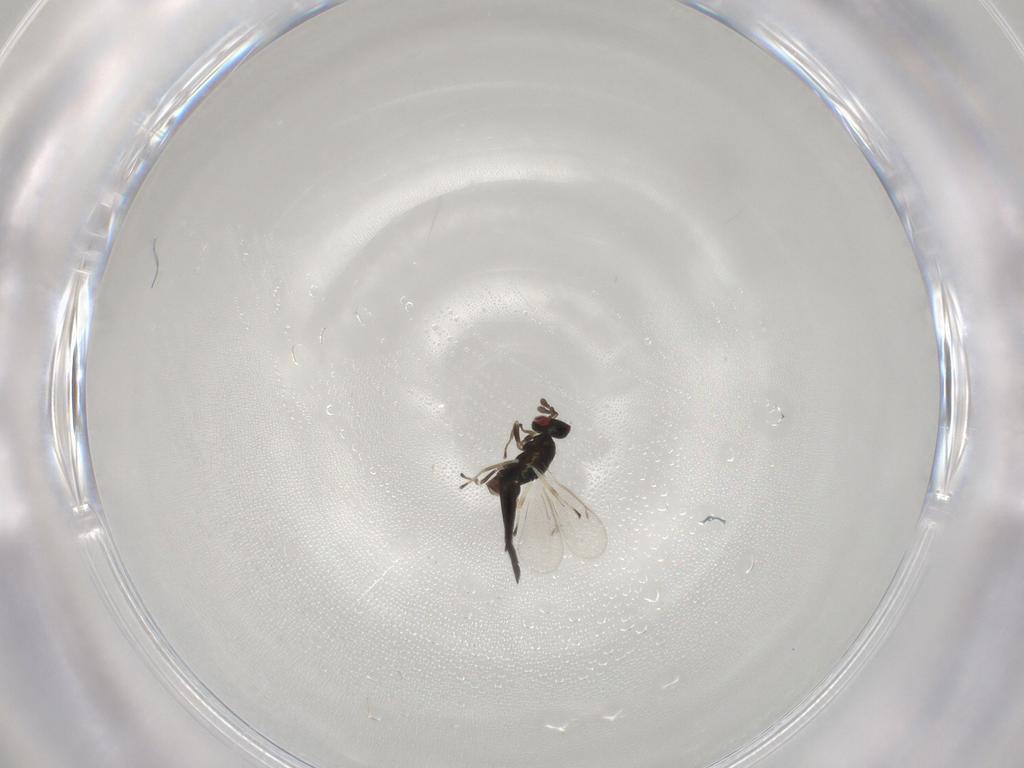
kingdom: Animalia
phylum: Arthropoda
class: Insecta
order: Hymenoptera
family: Eulophidae
